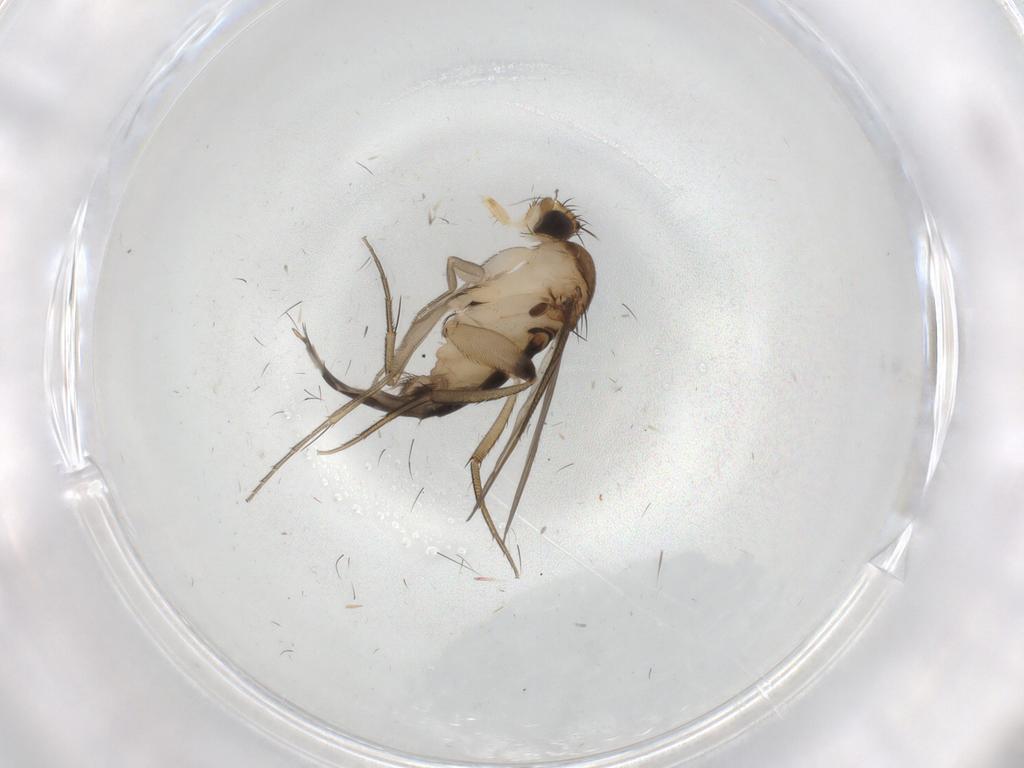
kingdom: Animalia
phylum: Arthropoda
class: Insecta
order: Diptera
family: Phoridae
